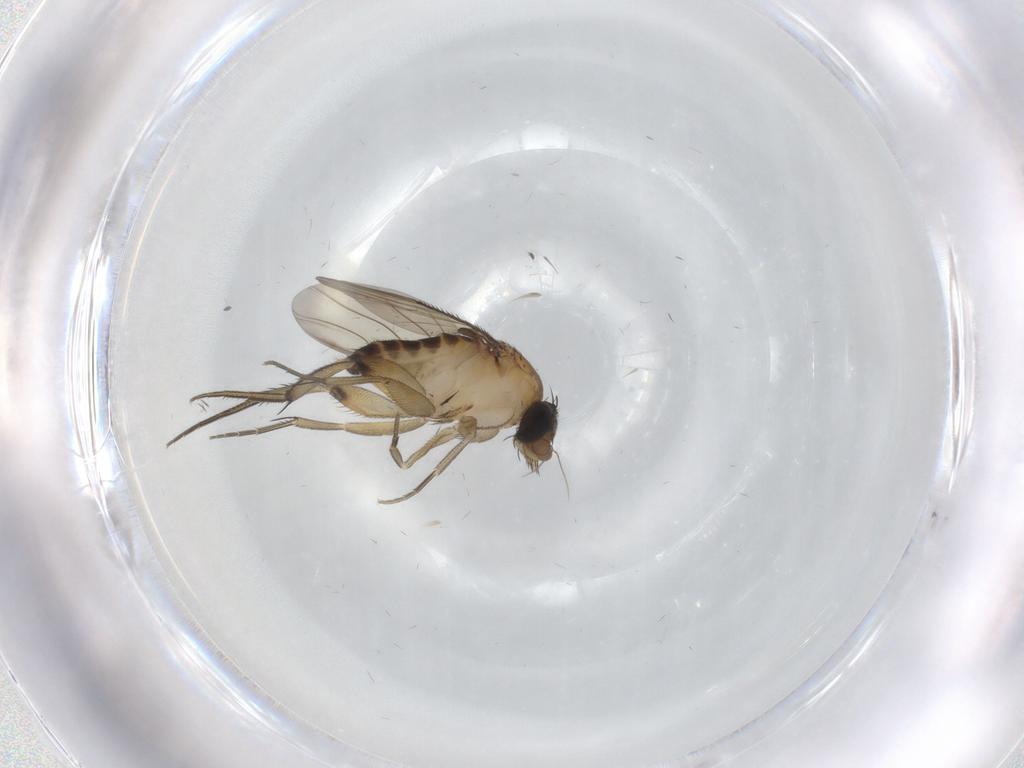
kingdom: Animalia
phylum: Arthropoda
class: Insecta
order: Diptera
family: Phoridae
